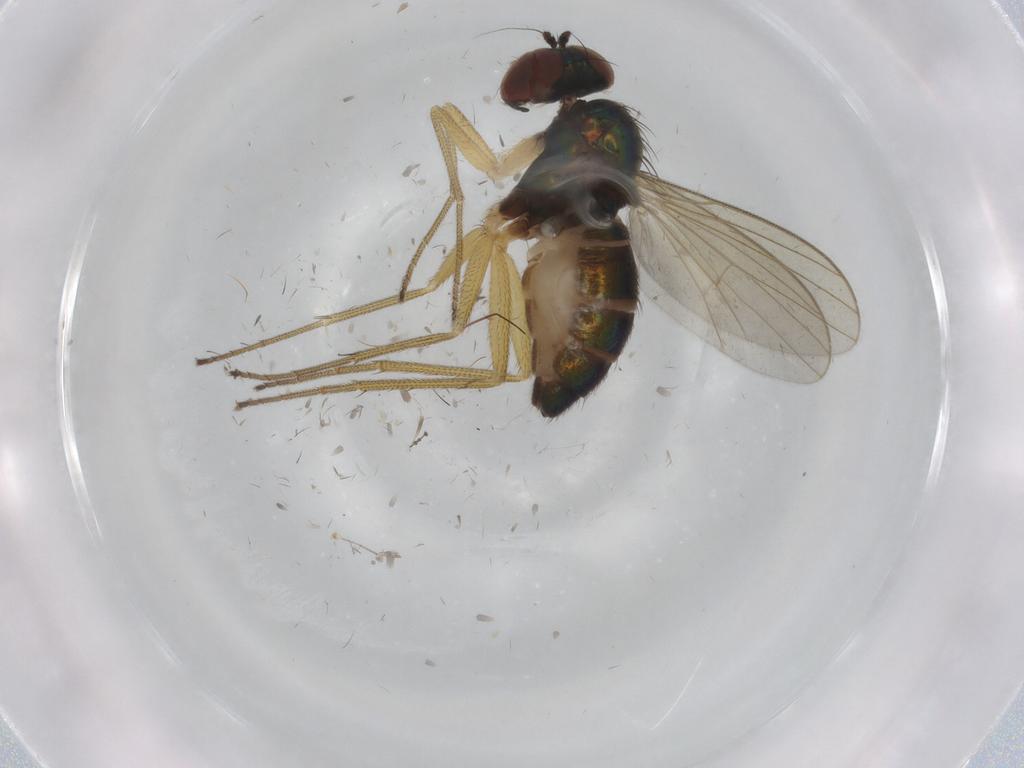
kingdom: Animalia
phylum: Arthropoda
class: Insecta
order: Diptera
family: Dolichopodidae
